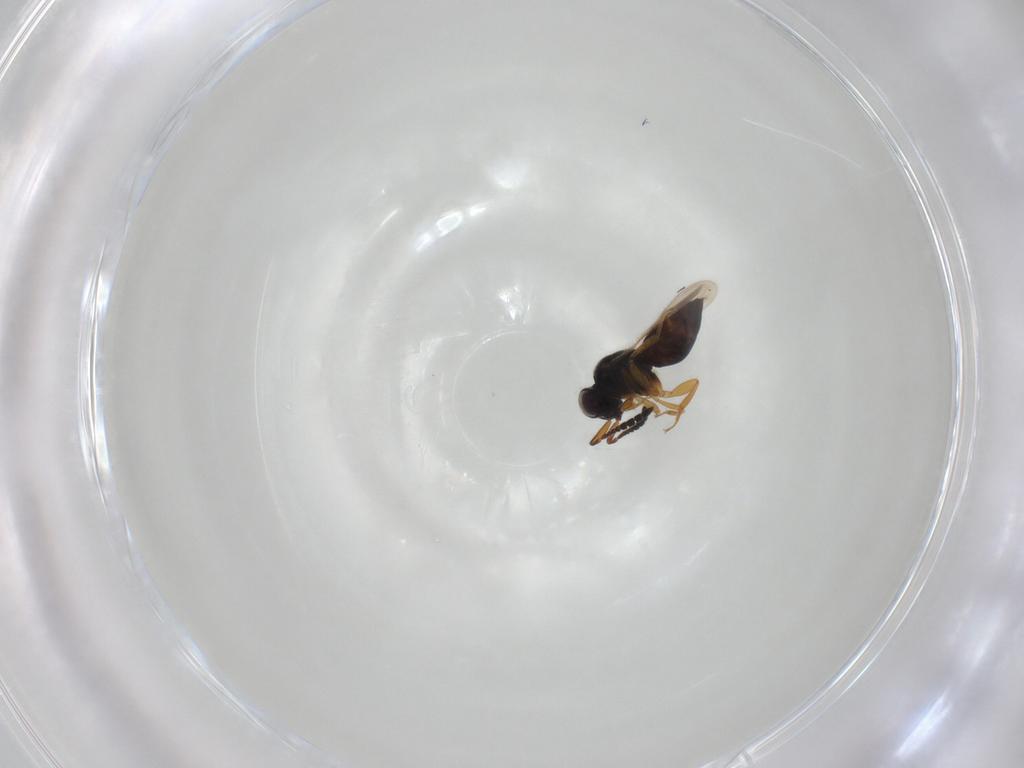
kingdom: Animalia
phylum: Arthropoda
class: Insecta
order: Hymenoptera
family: Ceraphronidae
